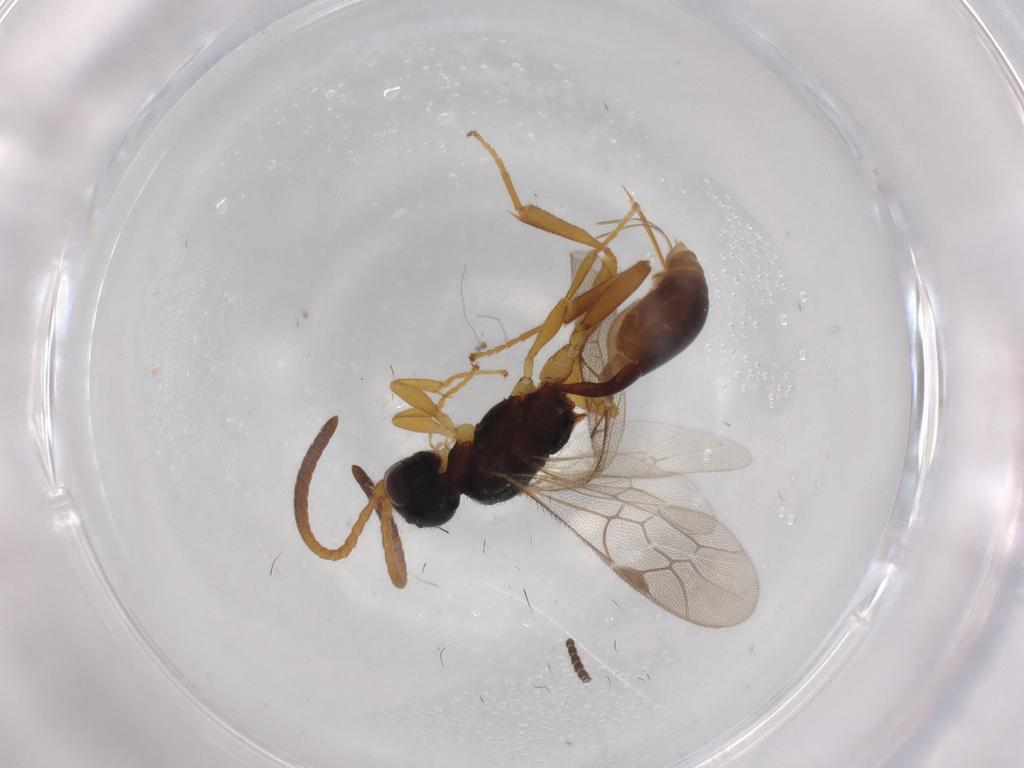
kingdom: Animalia
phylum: Arthropoda
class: Insecta
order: Hymenoptera
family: Ichneumonidae
